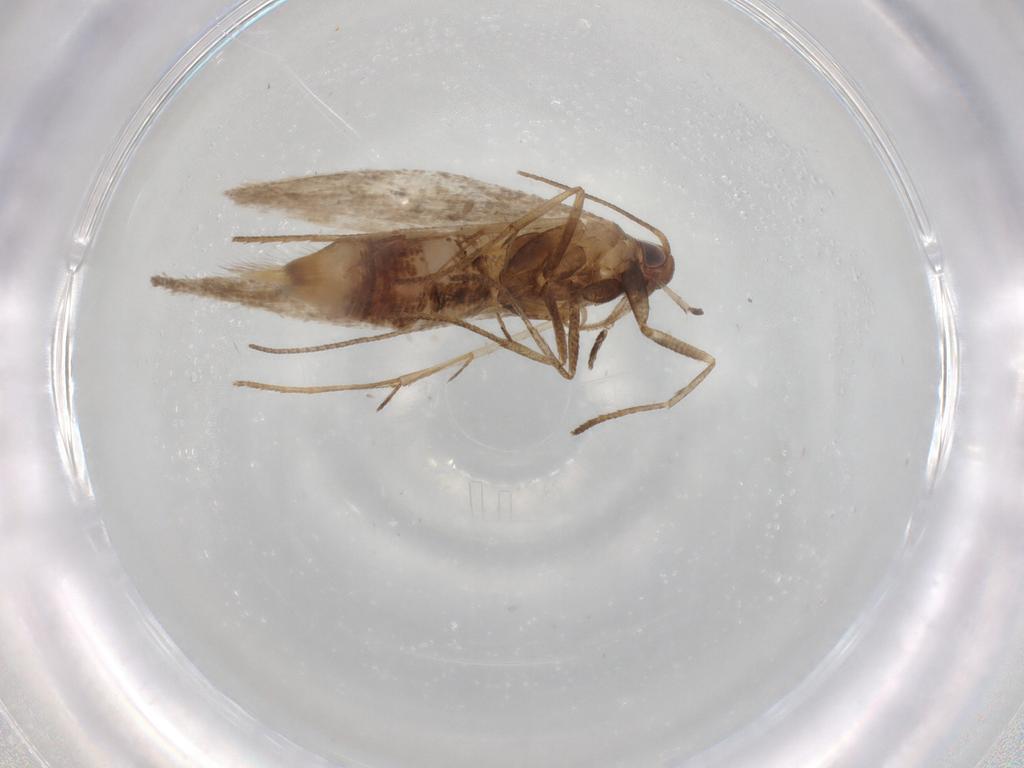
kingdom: Animalia
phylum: Arthropoda
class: Insecta
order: Lepidoptera
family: Depressariidae
